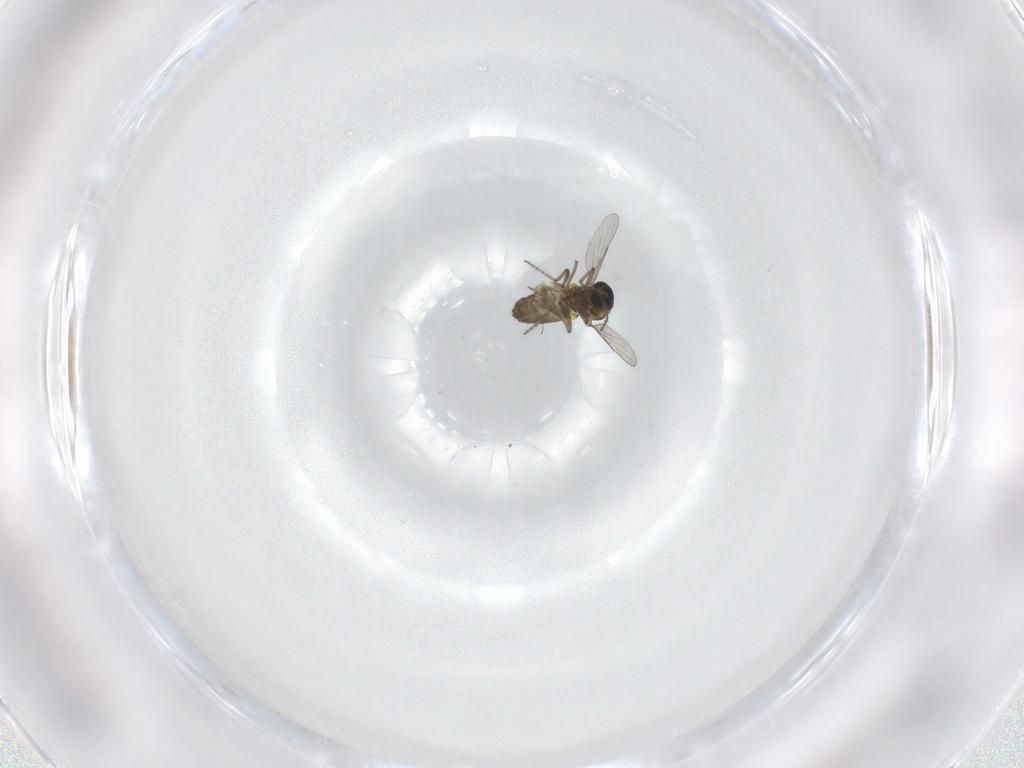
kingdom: Animalia
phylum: Arthropoda
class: Insecta
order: Diptera
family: Ceratopogonidae
